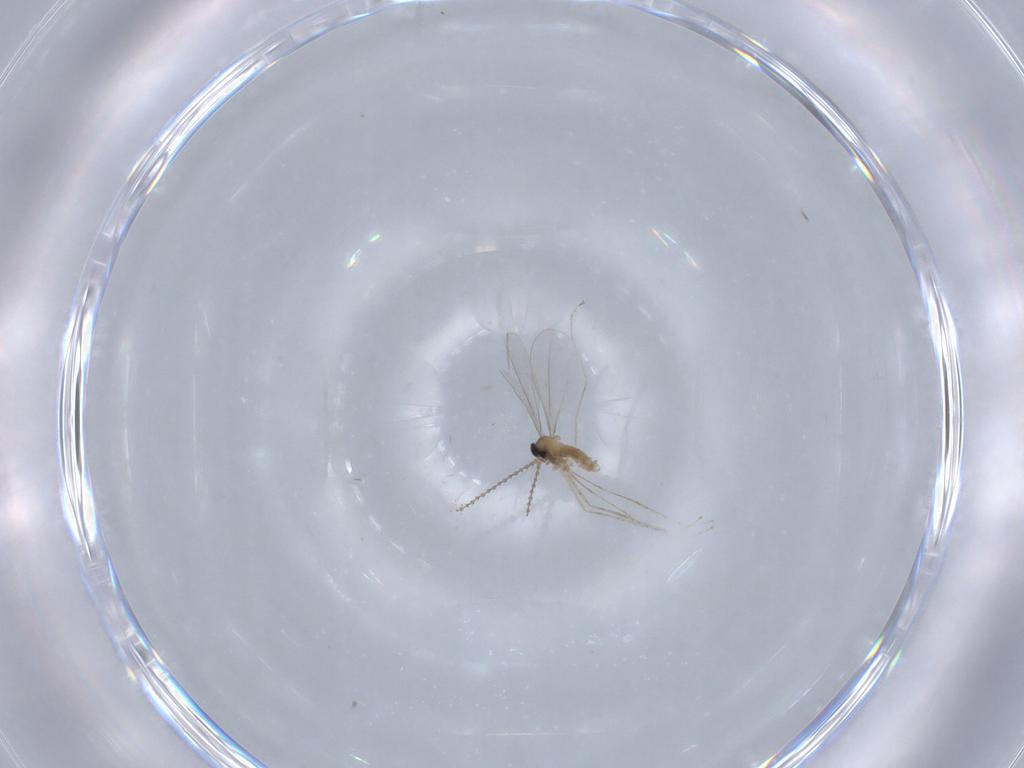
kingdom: Animalia
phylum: Arthropoda
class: Insecta
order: Diptera
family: Cecidomyiidae
